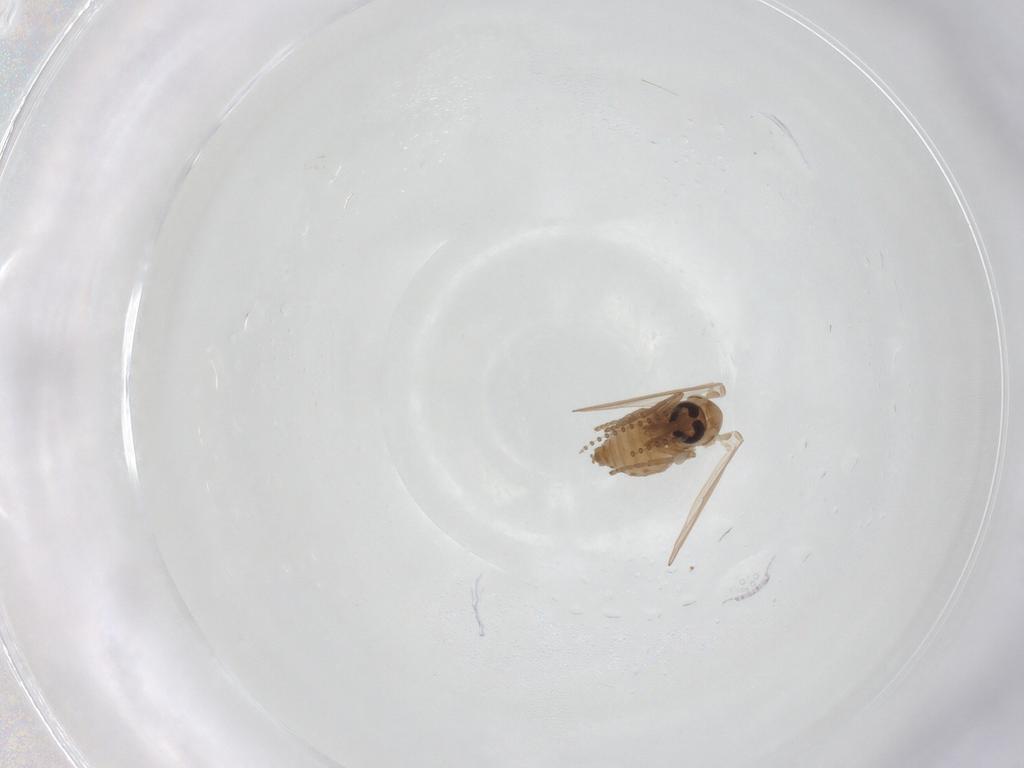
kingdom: Animalia
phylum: Arthropoda
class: Insecta
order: Diptera
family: Psychodidae
